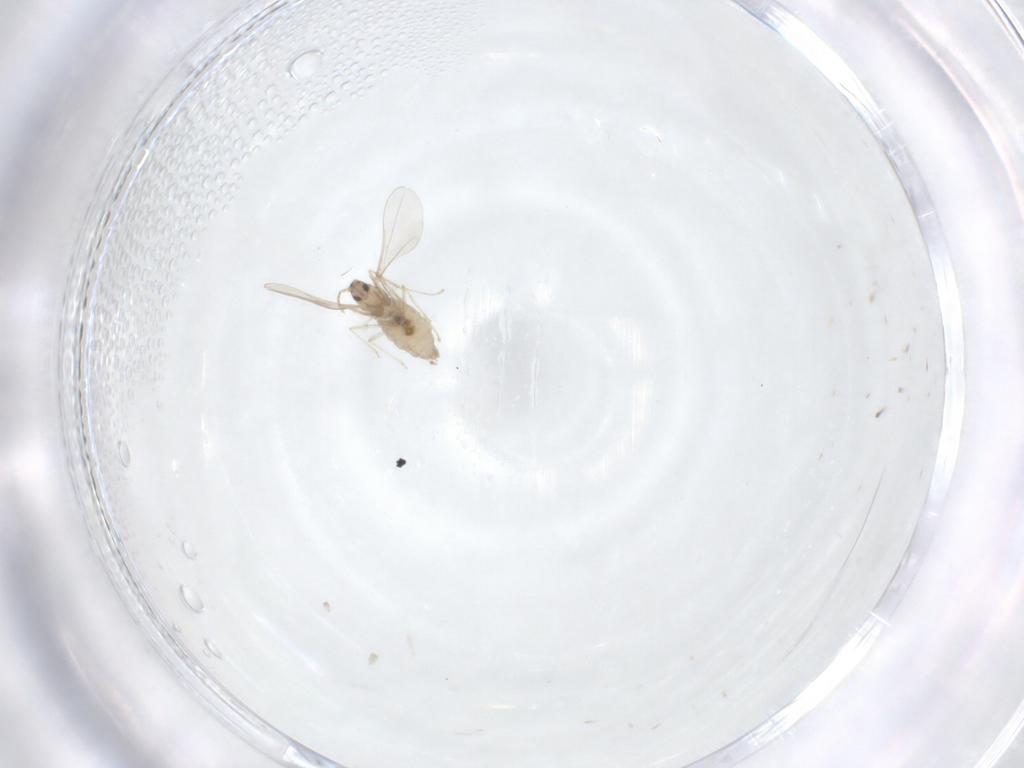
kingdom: Animalia
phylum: Arthropoda
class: Insecta
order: Diptera
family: Cecidomyiidae
